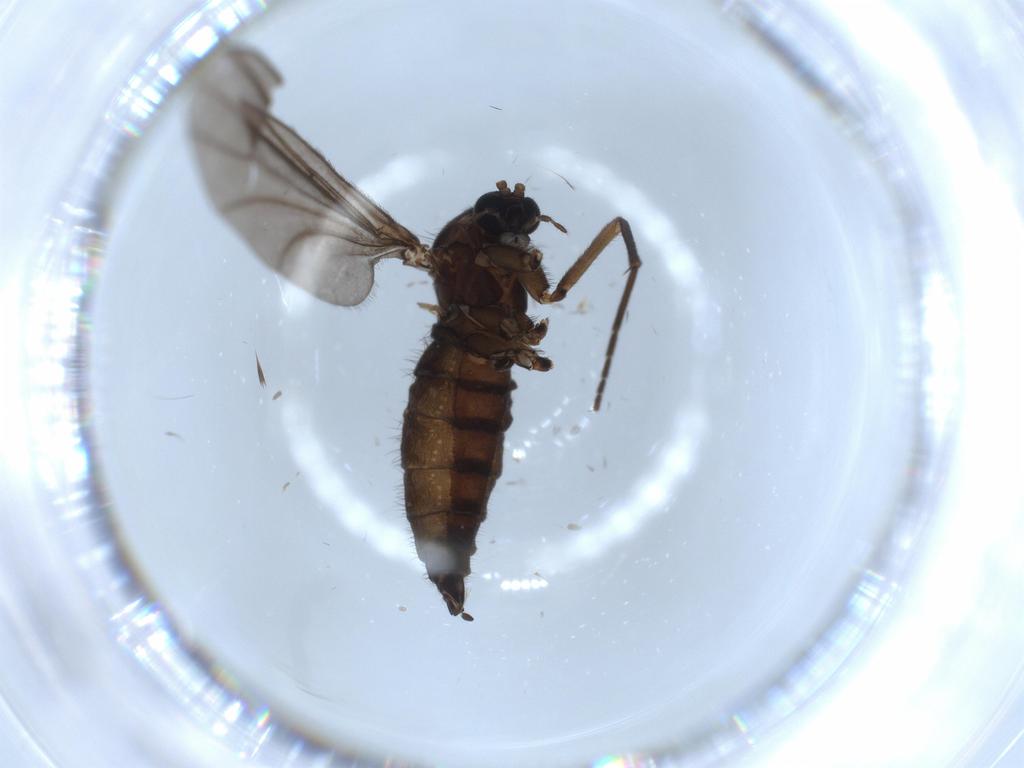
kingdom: Animalia
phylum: Arthropoda
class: Insecta
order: Diptera
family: Sciaridae
